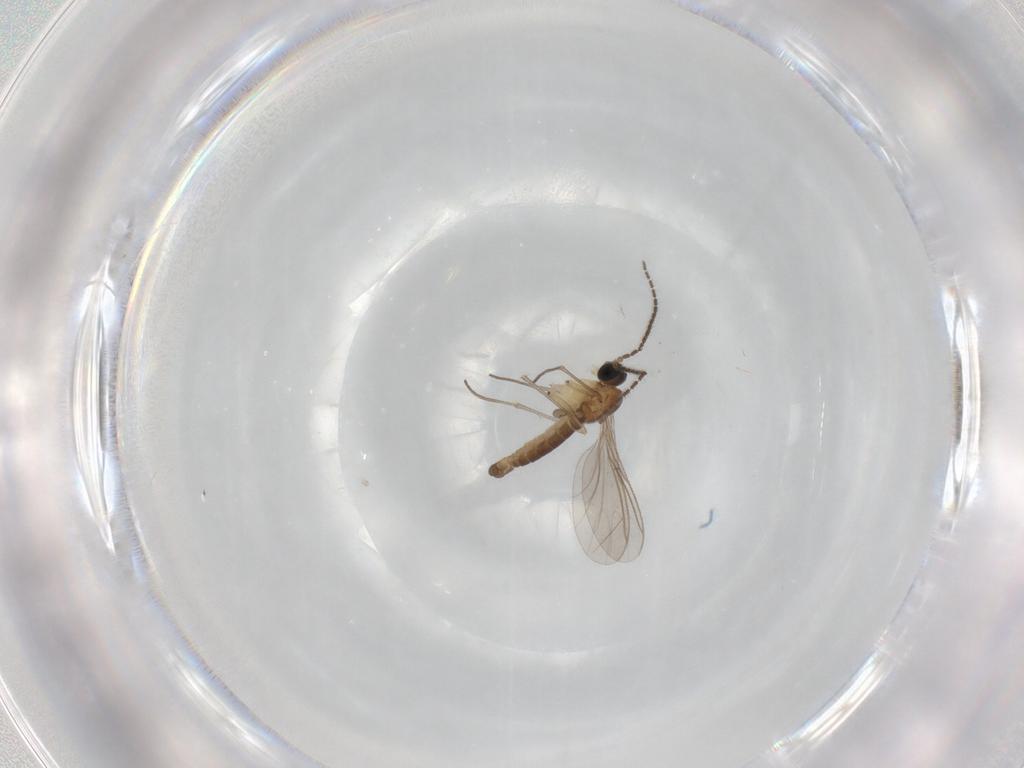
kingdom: Animalia
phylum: Arthropoda
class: Insecta
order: Diptera
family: Sciaridae
